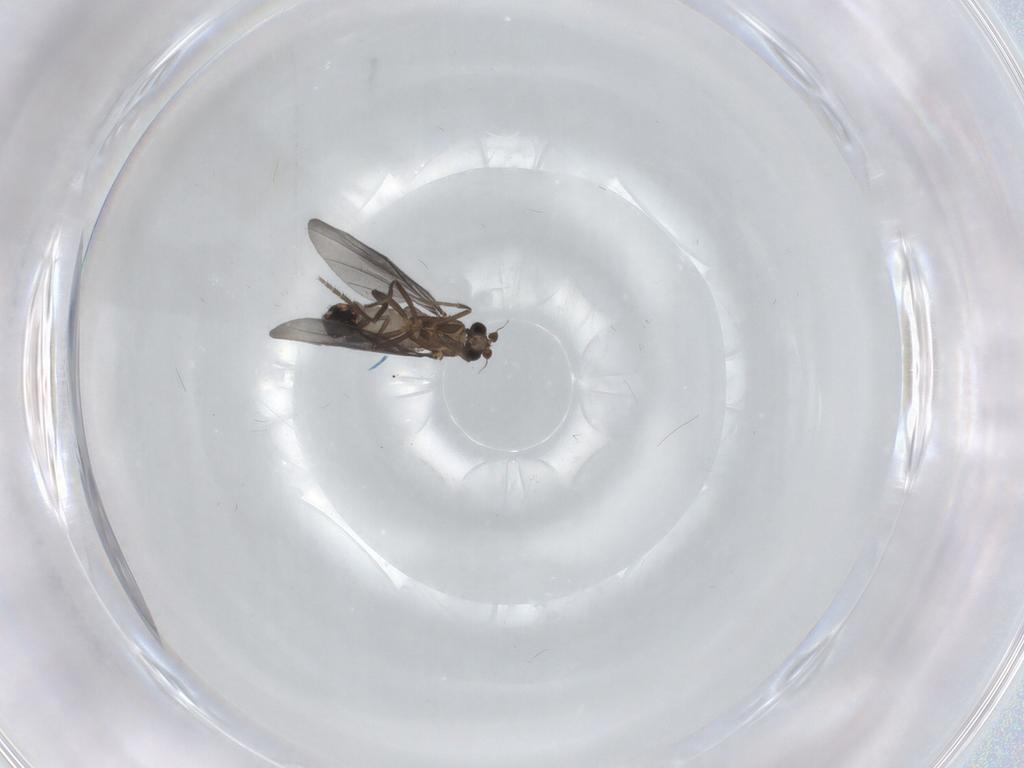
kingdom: Animalia
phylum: Arthropoda
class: Insecta
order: Diptera
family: Phoridae
